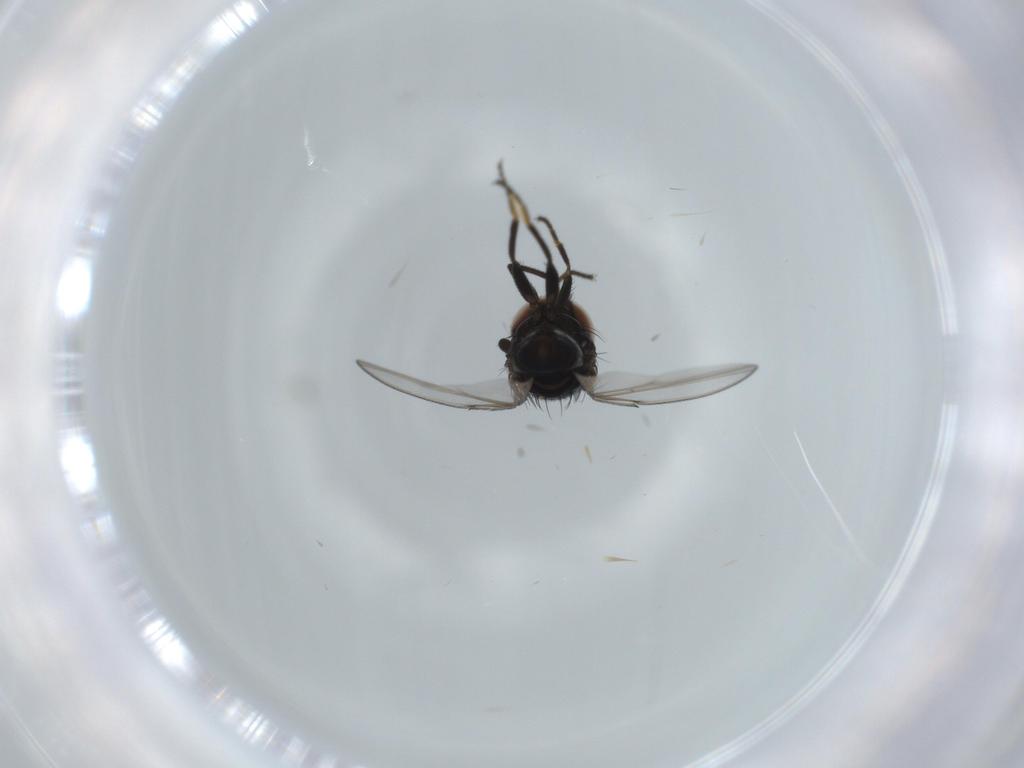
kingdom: Animalia
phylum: Arthropoda
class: Insecta
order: Diptera
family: Milichiidae
